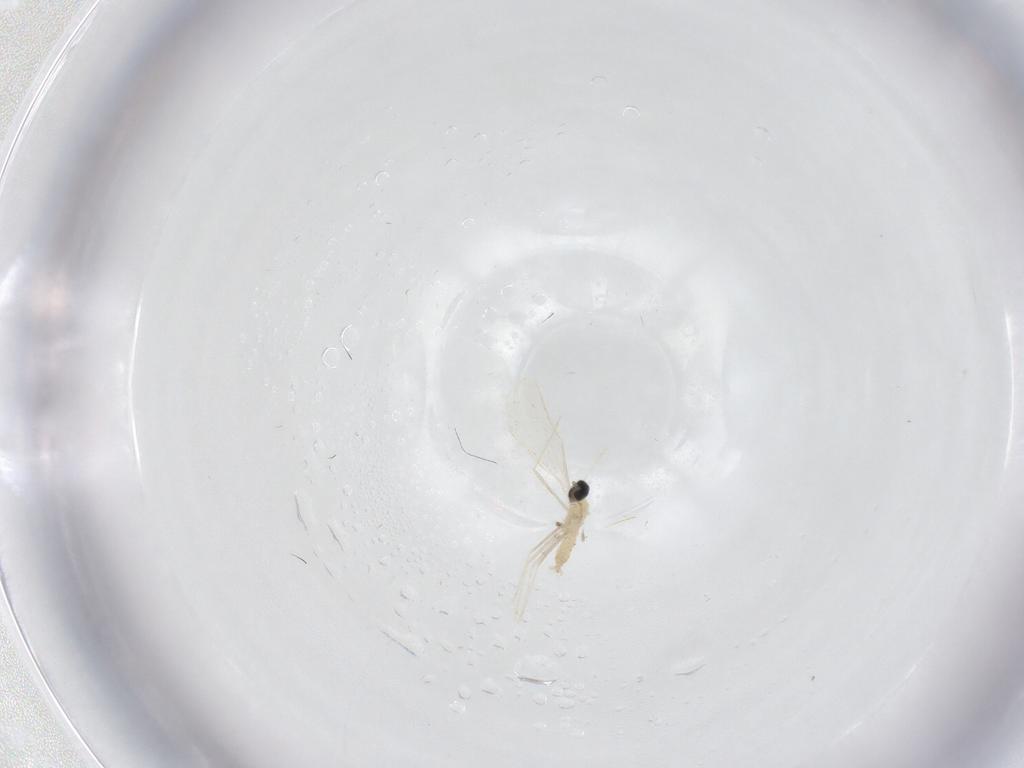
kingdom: Animalia
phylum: Arthropoda
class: Insecta
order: Diptera
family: Cecidomyiidae
